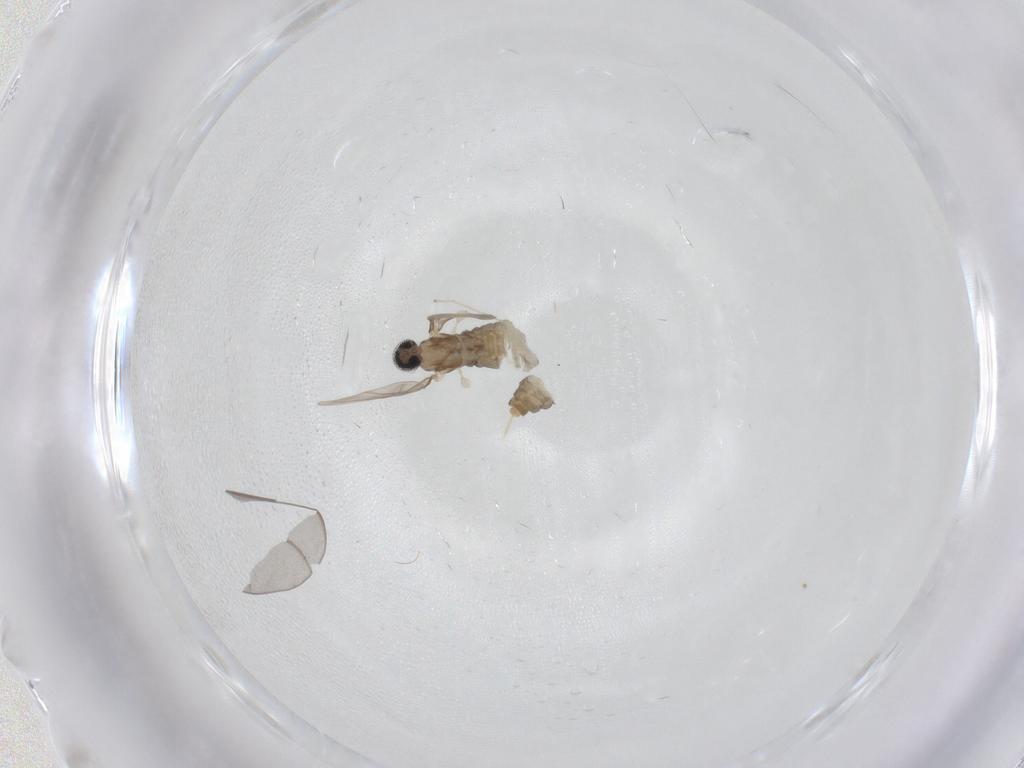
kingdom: Animalia
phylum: Arthropoda
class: Insecta
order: Diptera
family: Cecidomyiidae
